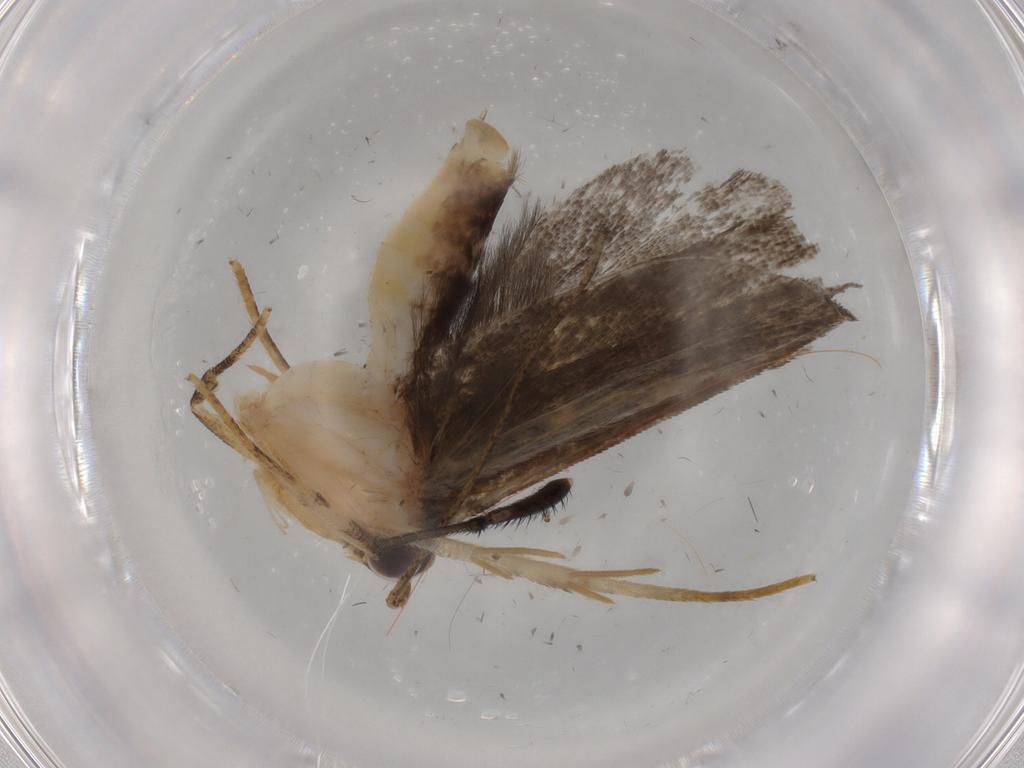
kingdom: Animalia
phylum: Arthropoda
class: Insecta
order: Lepidoptera
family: Gelechiidae
